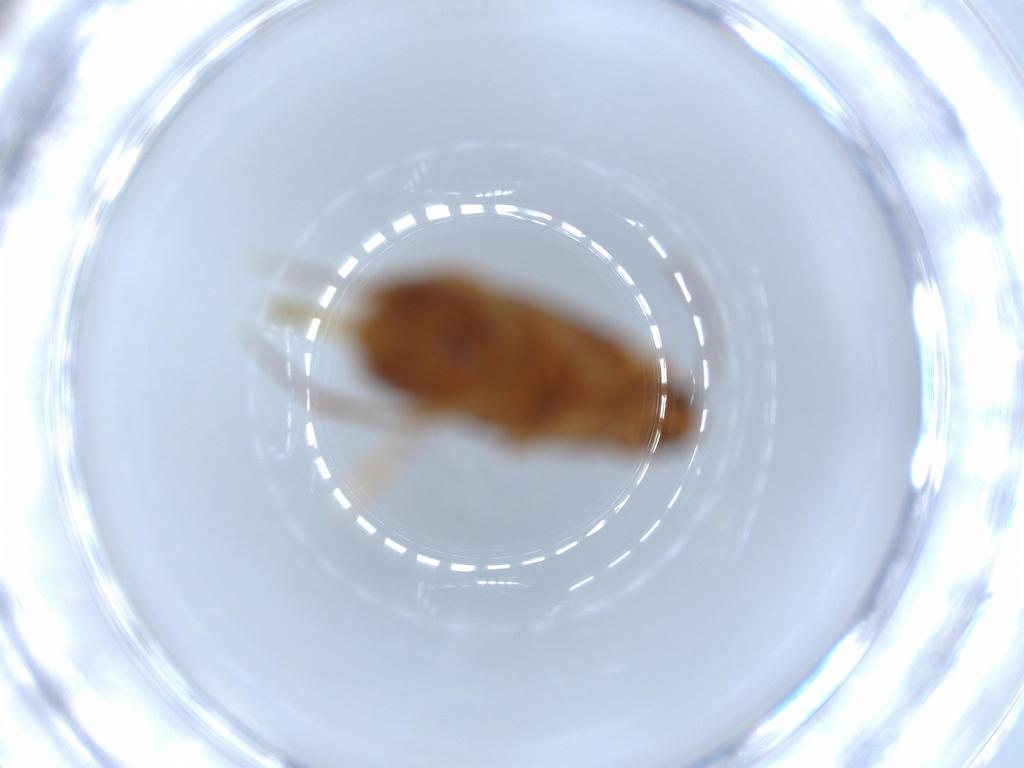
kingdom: Animalia
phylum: Arthropoda
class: Insecta
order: Coleoptera
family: Scraptiidae
